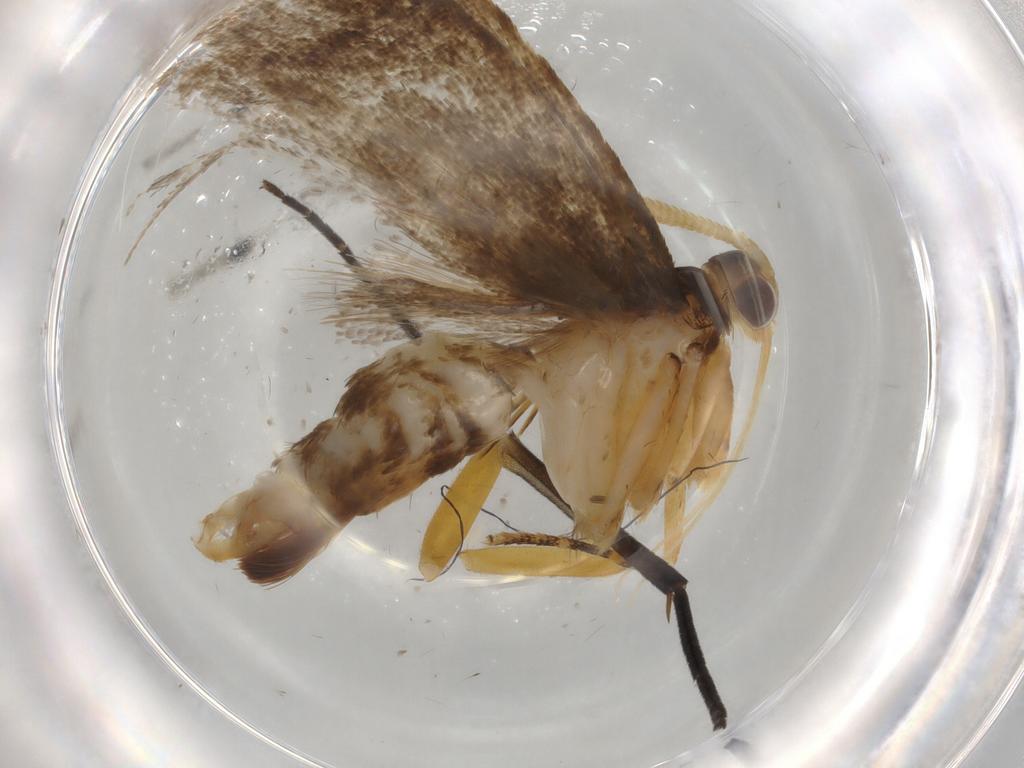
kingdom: Animalia
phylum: Arthropoda
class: Insecta
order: Lepidoptera
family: Lecithoceridae
